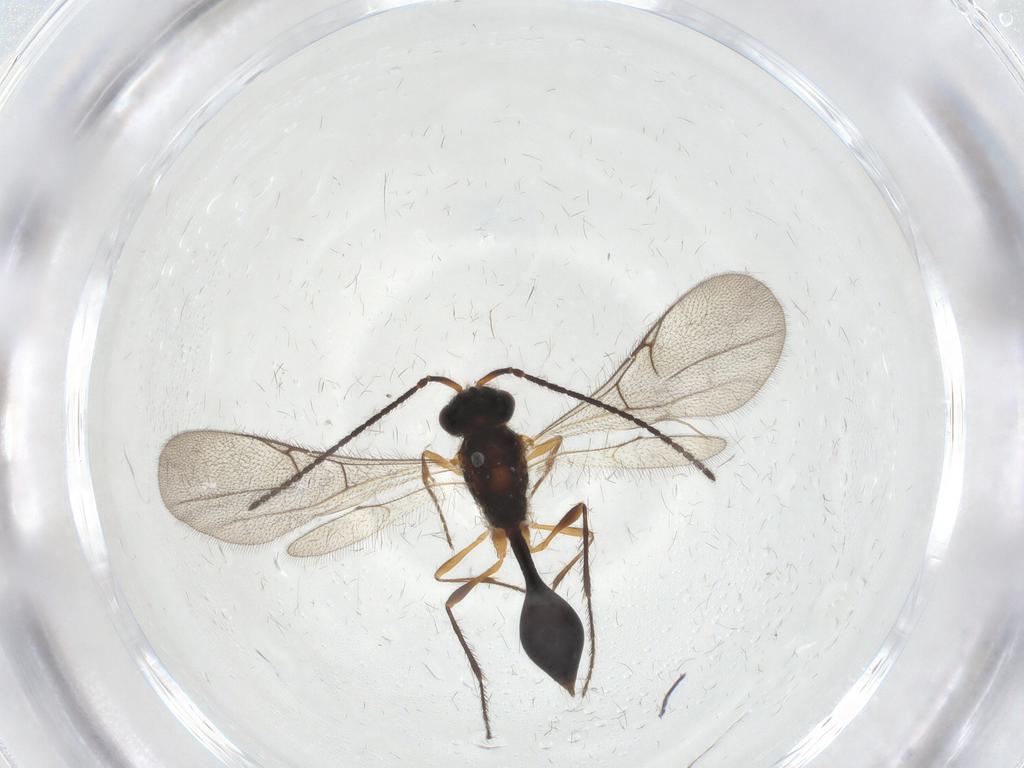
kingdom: Animalia
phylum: Arthropoda
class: Insecta
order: Hymenoptera
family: Diapriidae
